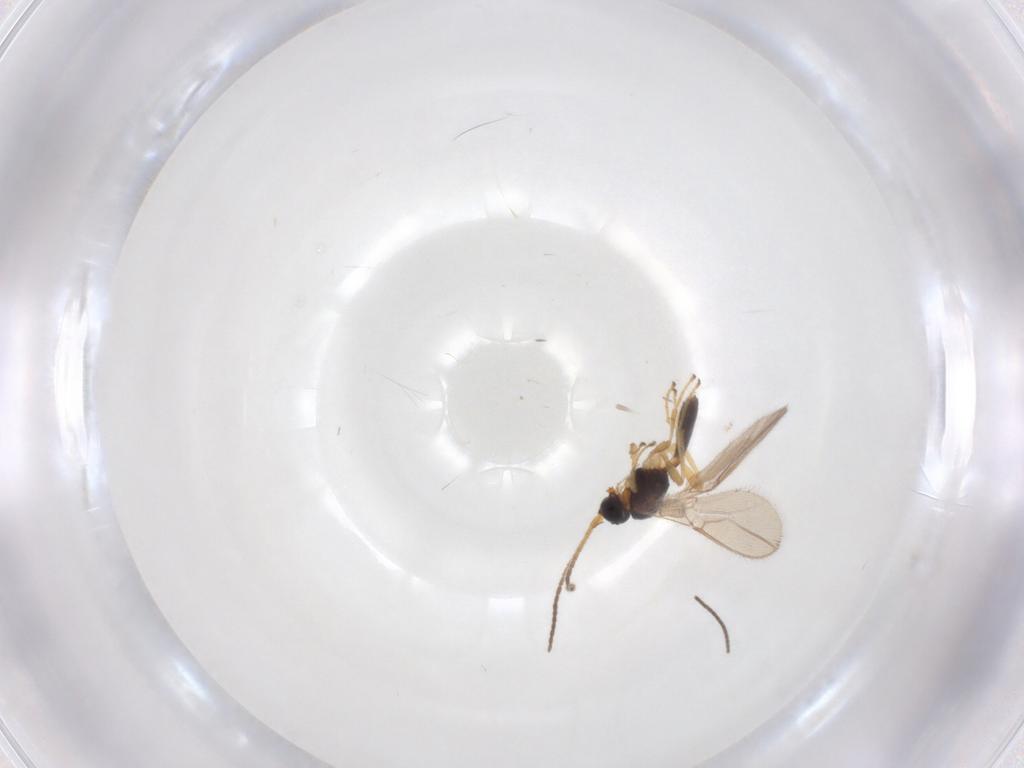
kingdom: Animalia
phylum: Arthropoda
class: Insecta
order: Hymenoptera
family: Braconidae
